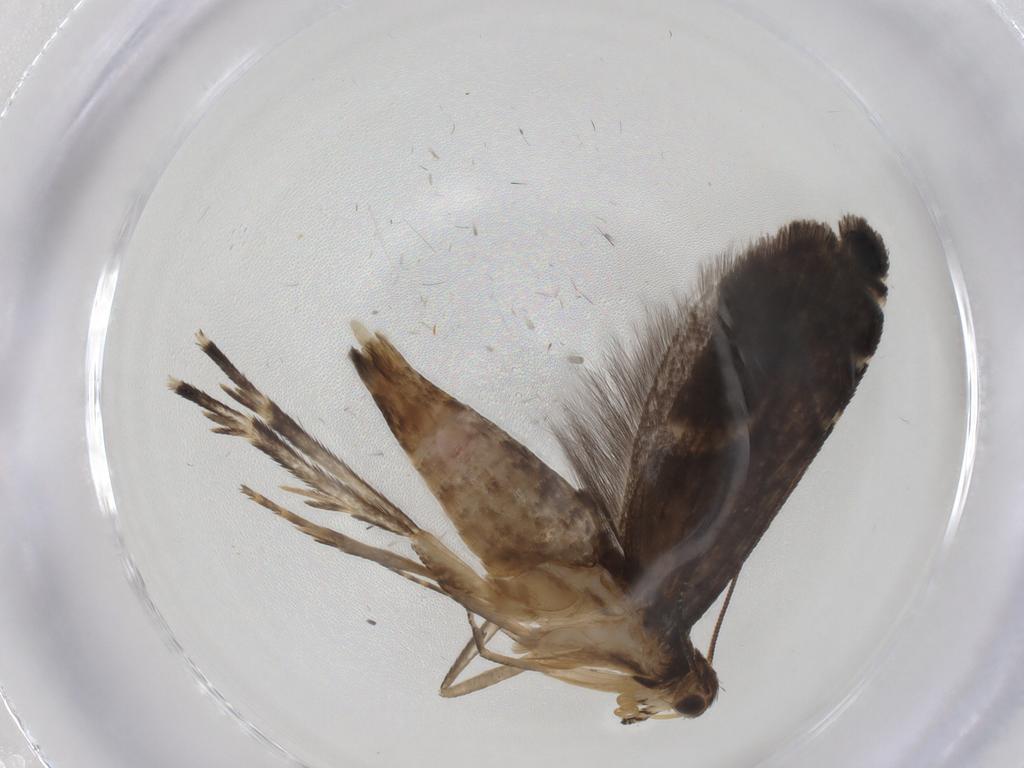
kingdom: Animalia
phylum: Arthropoda
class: Insecta
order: Lepidoptera
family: Glyphipterigidae
